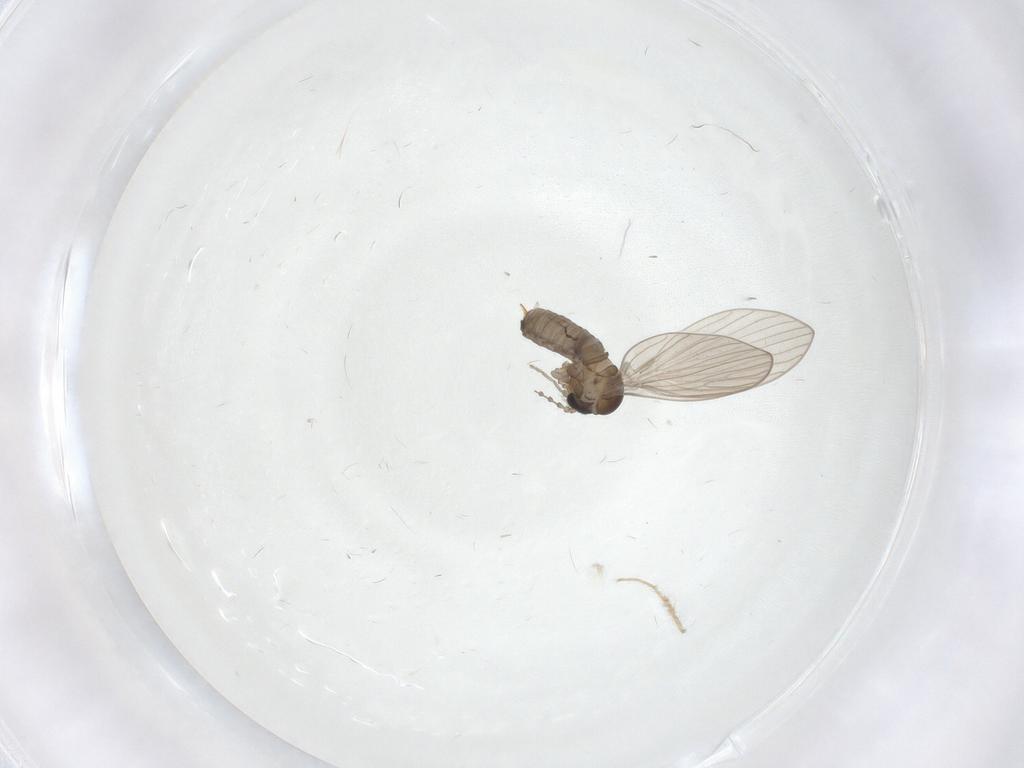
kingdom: Animalia
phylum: Arthropoda
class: Insecta
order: Diptera
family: Chironomidae
